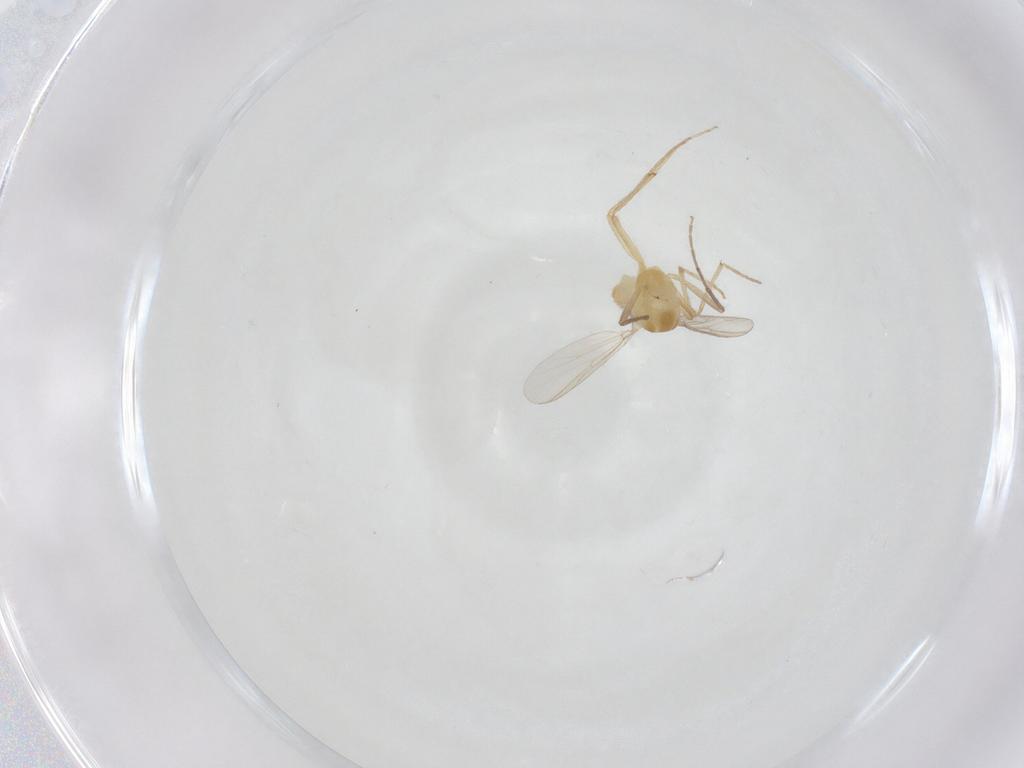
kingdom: Animalia
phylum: Arthropoda
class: Insecta
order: Diptera
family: Chironomidae
